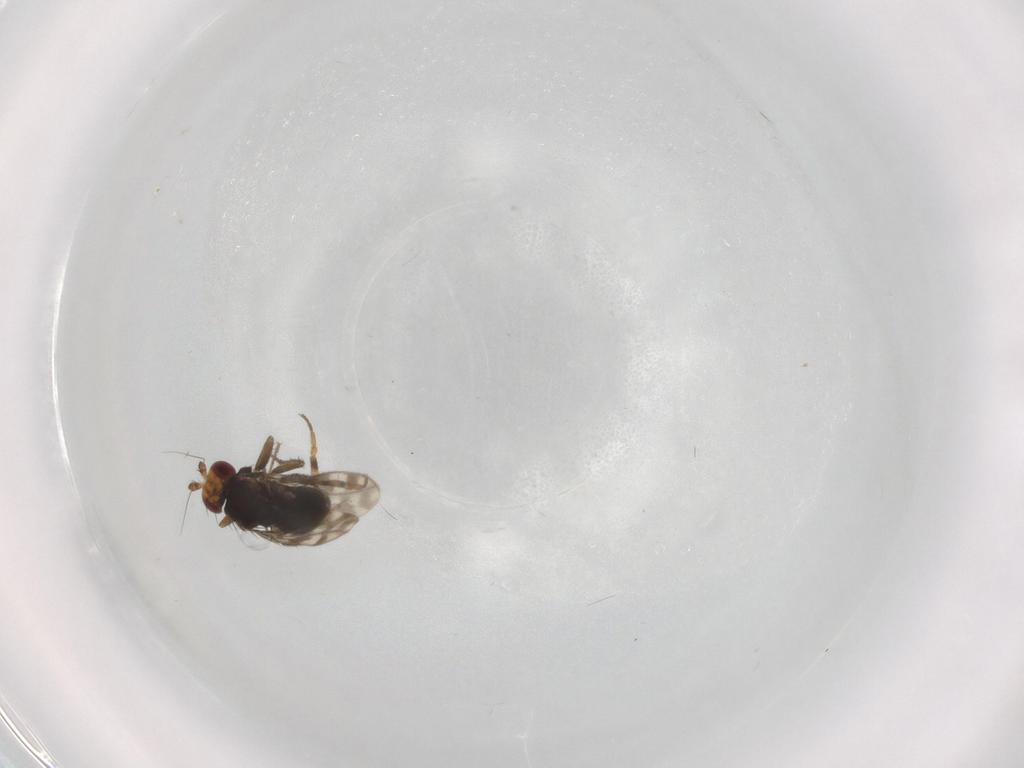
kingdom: Animalia
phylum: Arthropoda
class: Insecta
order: Diptera
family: Sphaeroceridae
